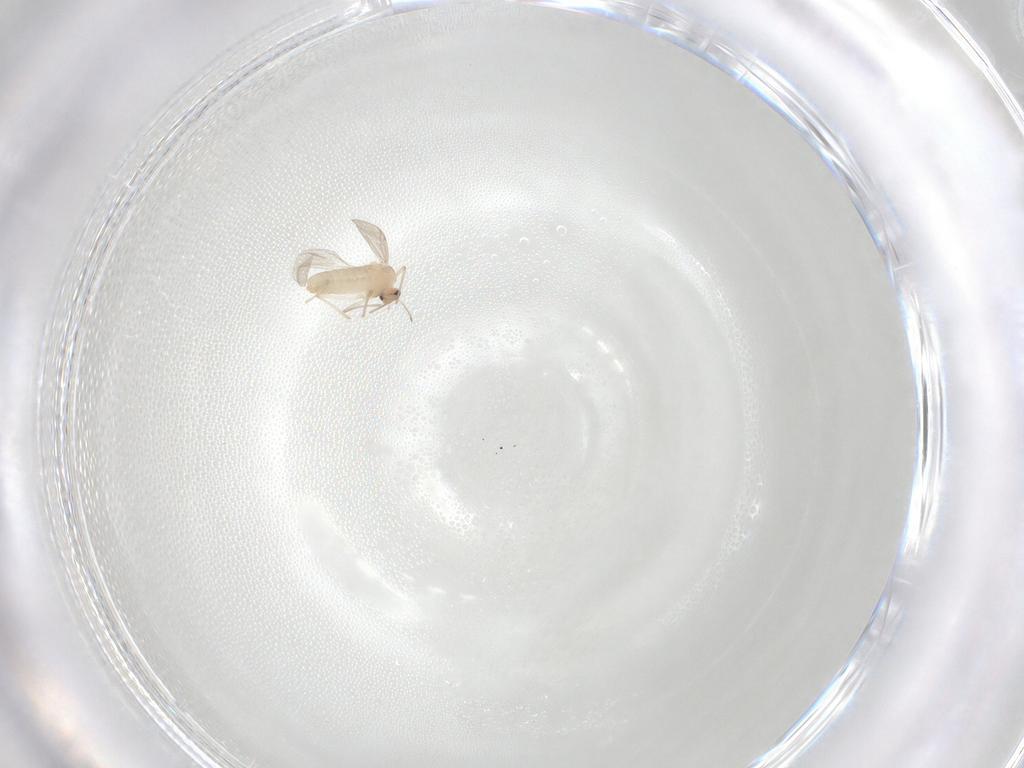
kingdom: Animalia
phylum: Arthropoda
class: Insecta
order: Diptera
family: Chironomidae
